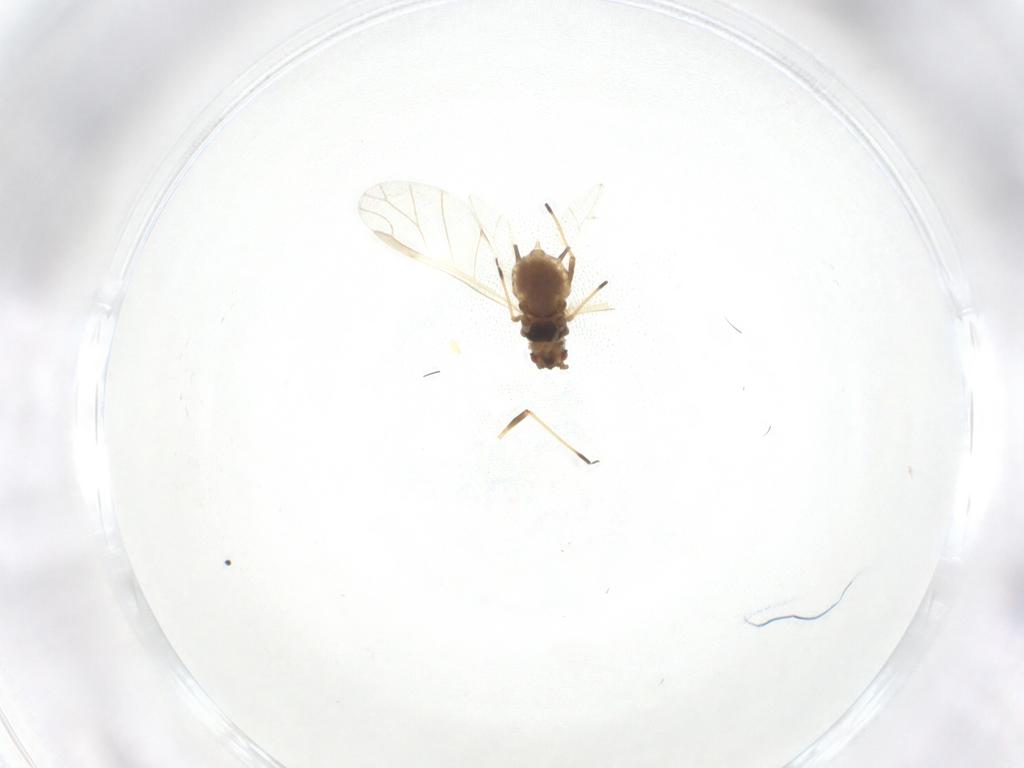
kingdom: Animalia
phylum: Arthropoda
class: Insecta
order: Hemiptera
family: Aphididae
